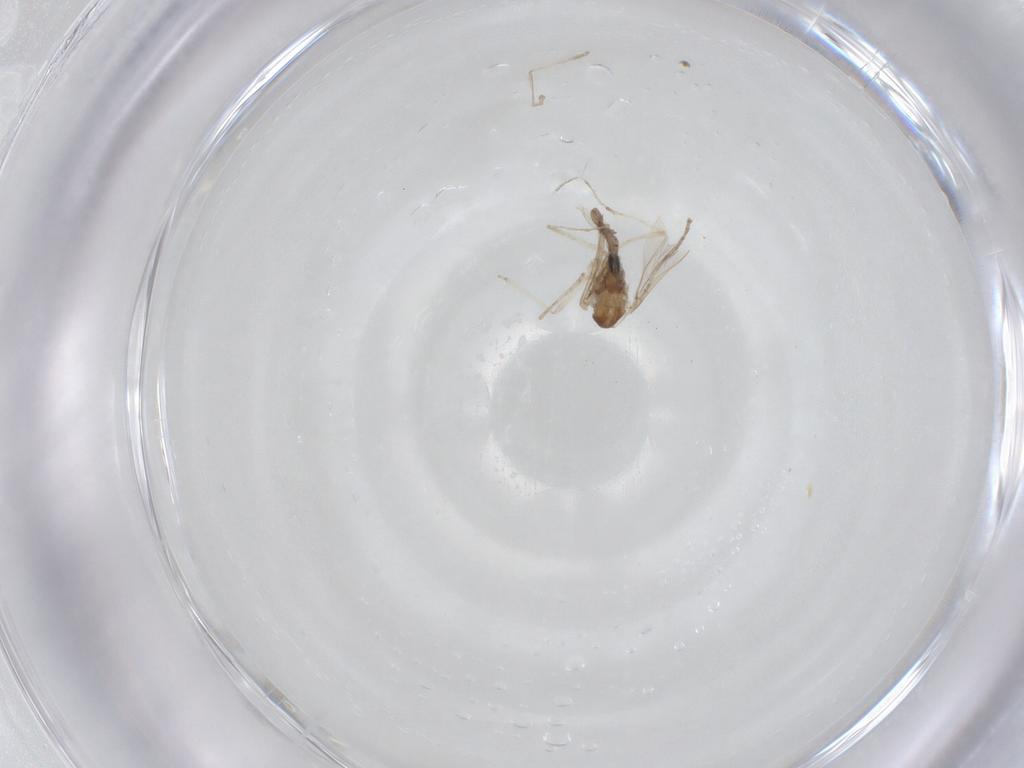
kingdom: Animalia
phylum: Arthropoda
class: Insecta
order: Diptera
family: Cecidomyiidae
